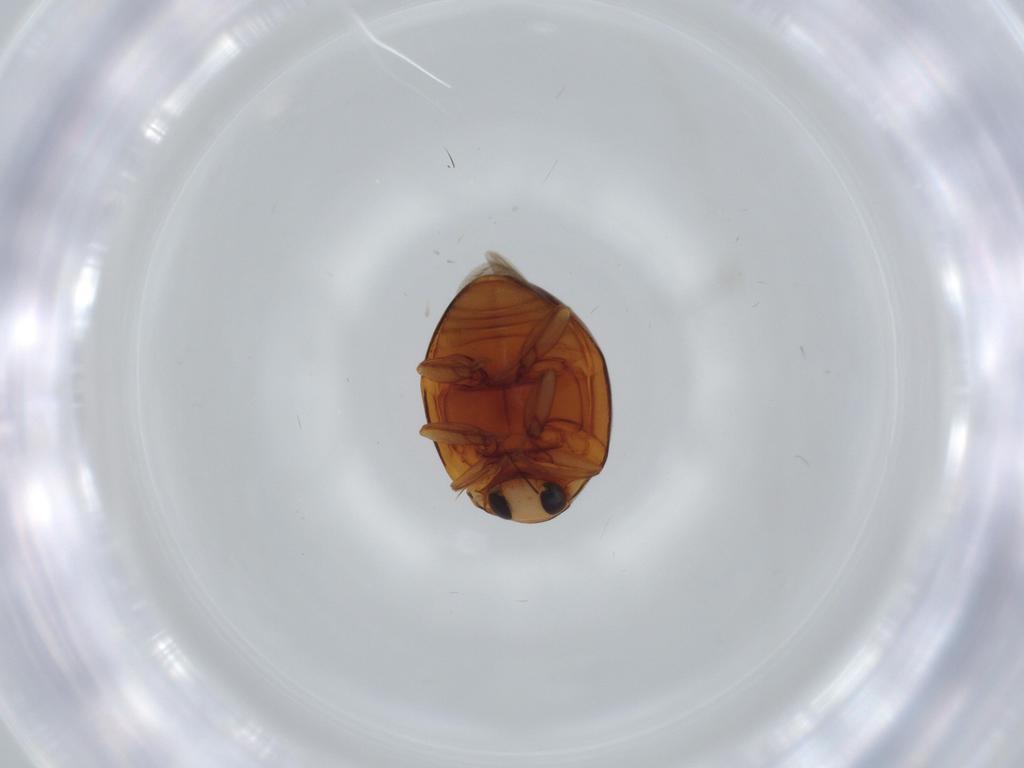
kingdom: Animalia
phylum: Arthropoda
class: Insecta
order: Coleoptera
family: Coccinellidae
